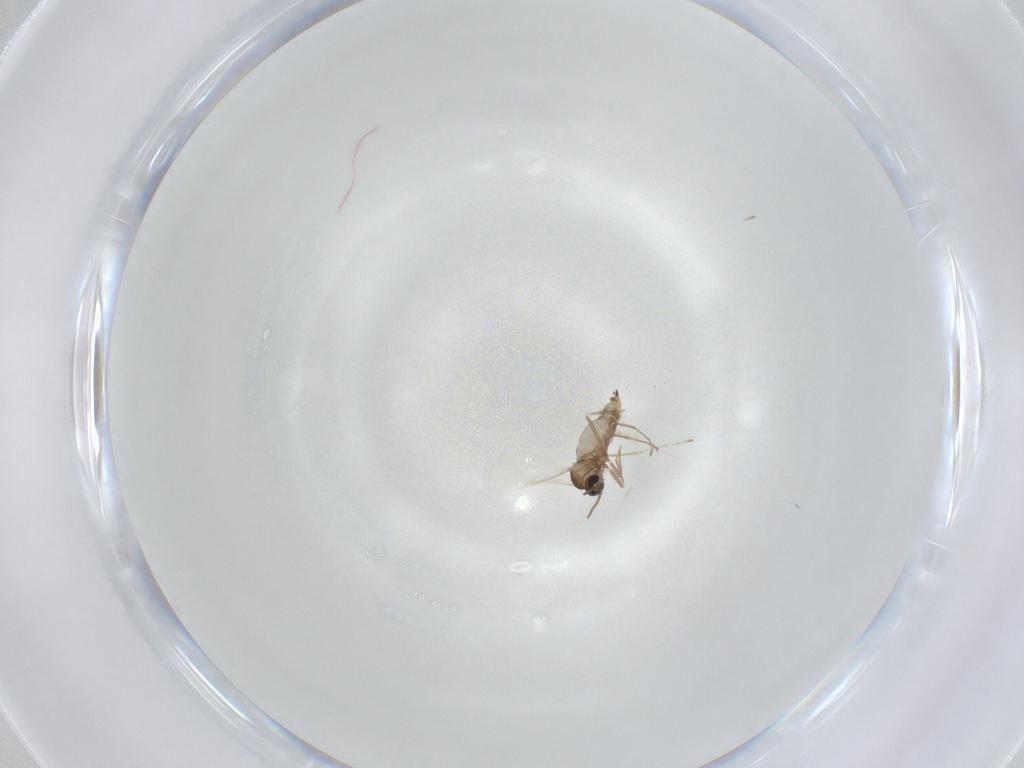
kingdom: Animalia
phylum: Arthropoda
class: Insecta
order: Diptera
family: Cecidomyiidae
